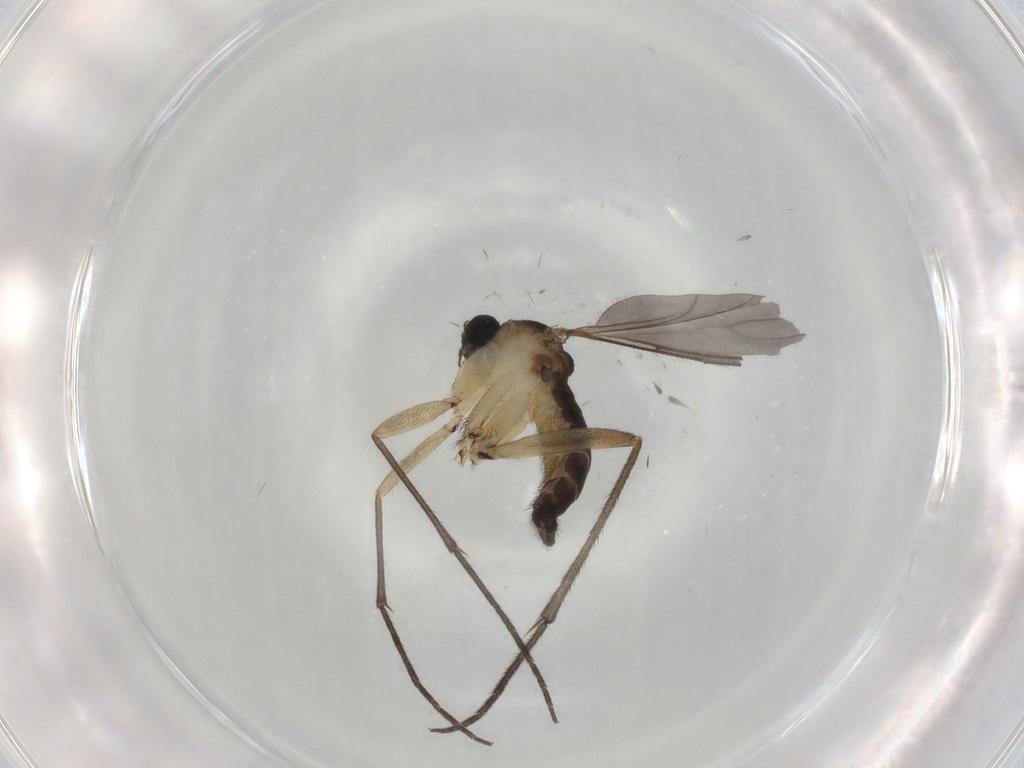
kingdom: Animalia
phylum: Arthropoda
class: Insecta
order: Diptera
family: Sciaridae
